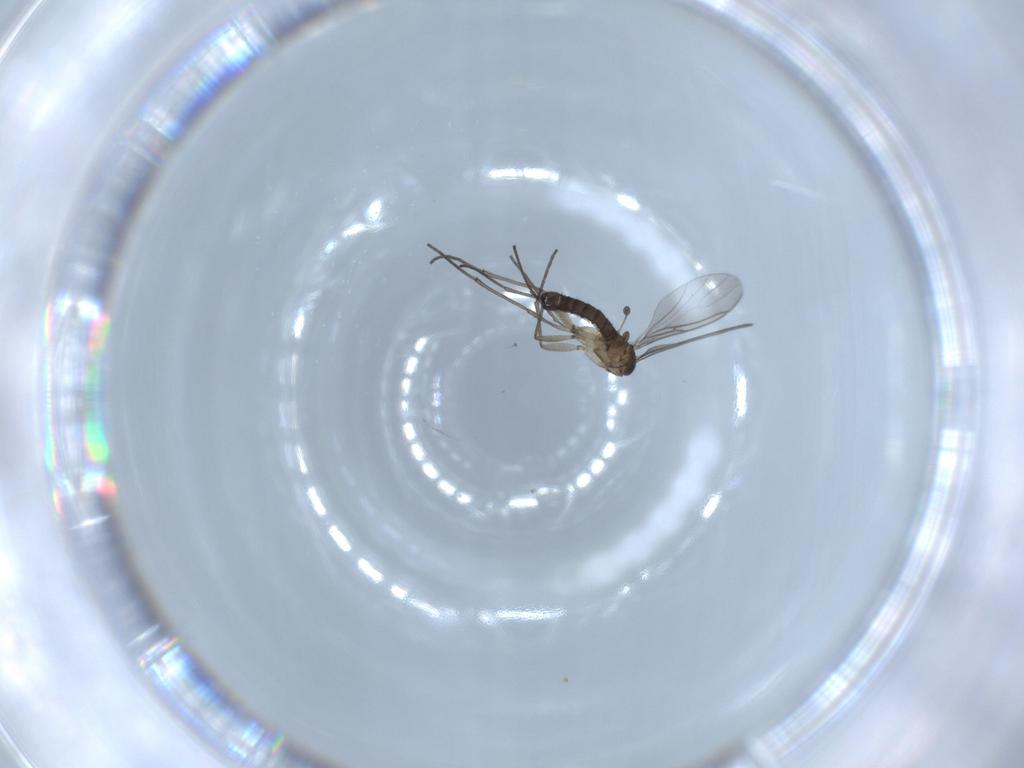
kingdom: Animalia
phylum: Arthropoda
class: Insecta
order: Diptera
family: Sciaridae
